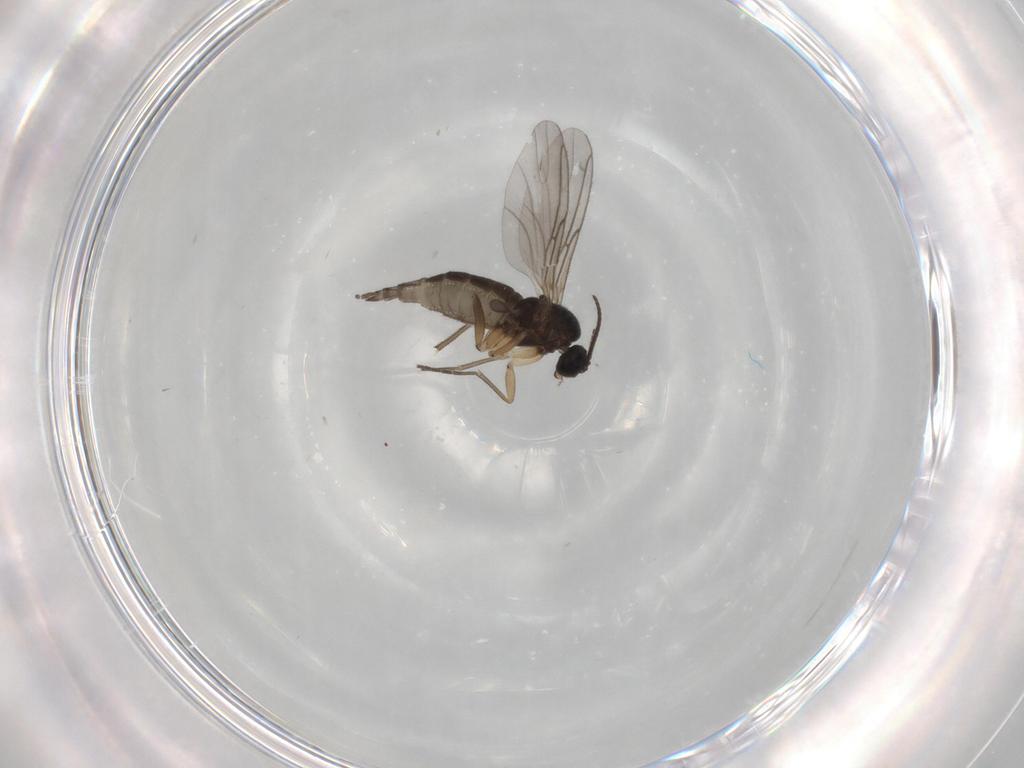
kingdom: Animalia
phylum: Arthropoda
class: Insecta
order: Diptera
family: Sciaridae
